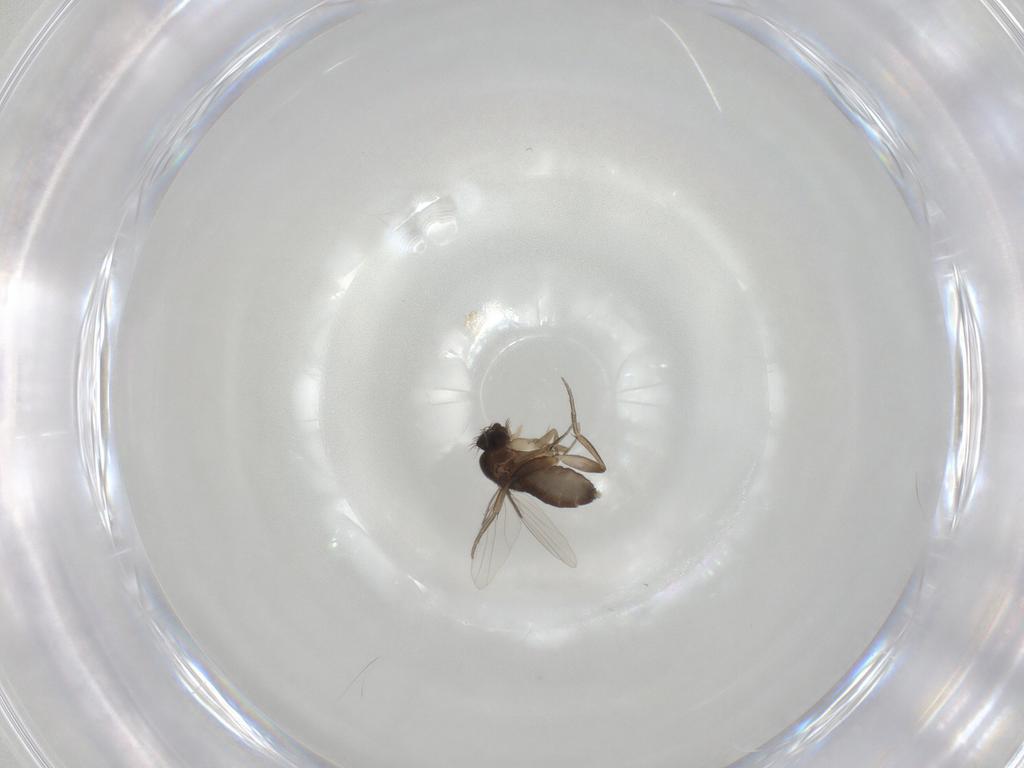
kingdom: Animalia
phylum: Arthropoda
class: Insecta
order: Diptera
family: Phoridae
